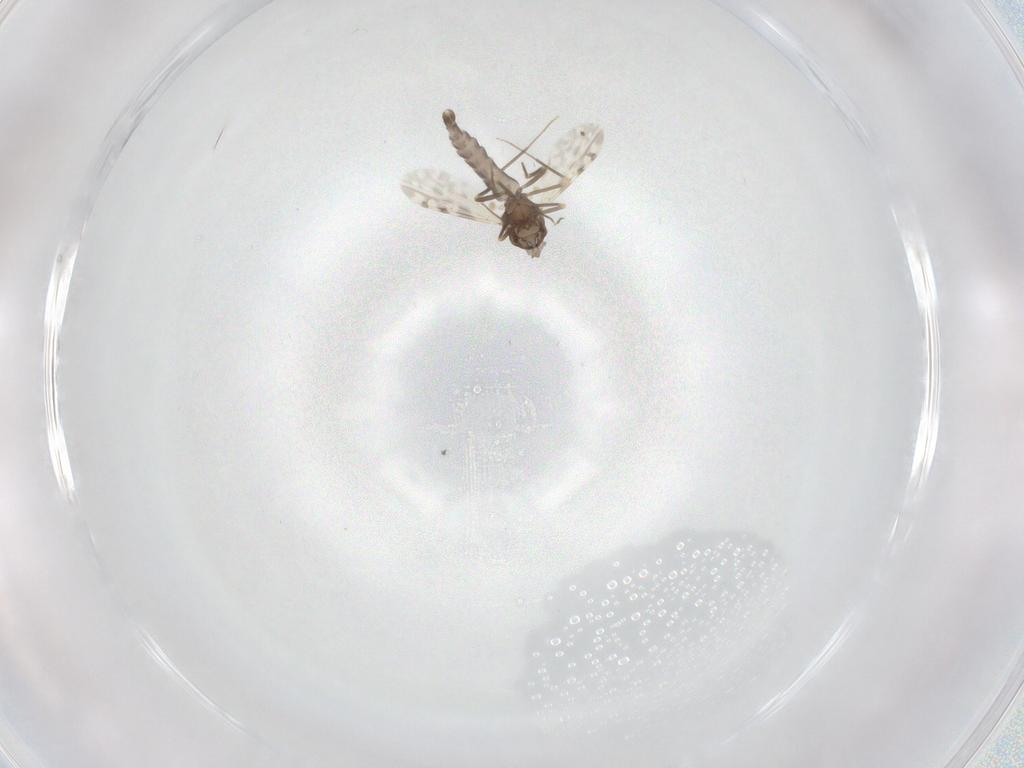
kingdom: Animalia
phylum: Arthropoda
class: Insecta
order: Diptera
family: Ceratopogonidae
